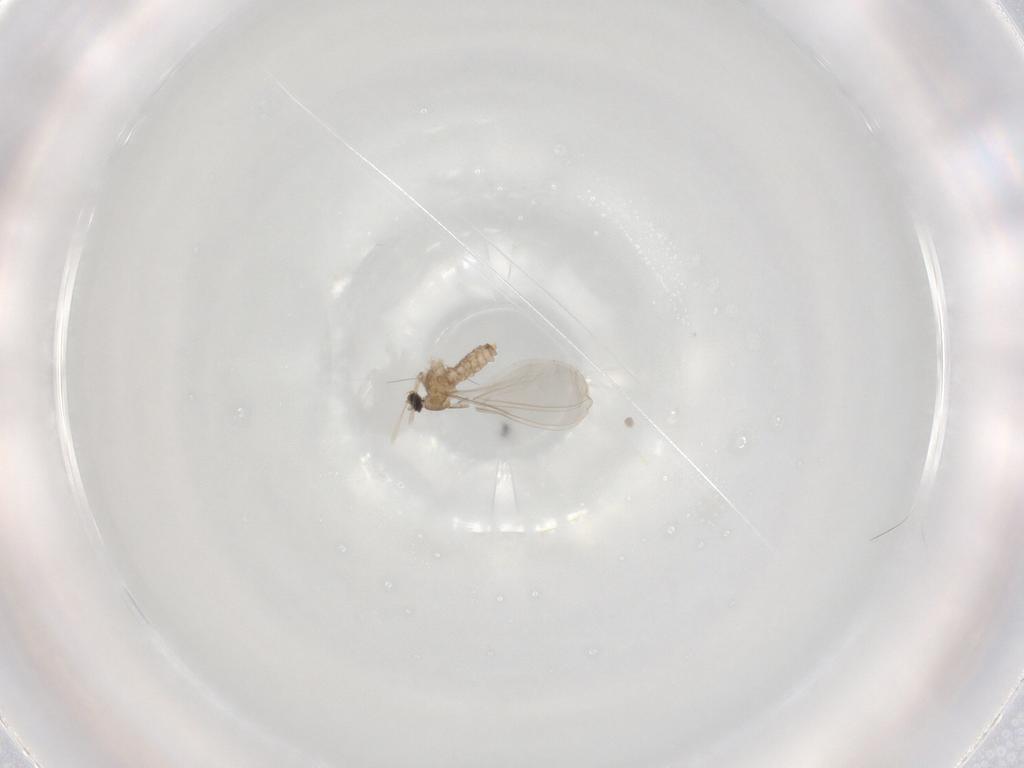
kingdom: Animalia
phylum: Arthropoda
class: Insecta
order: Diptera
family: Cecidomyiidae
